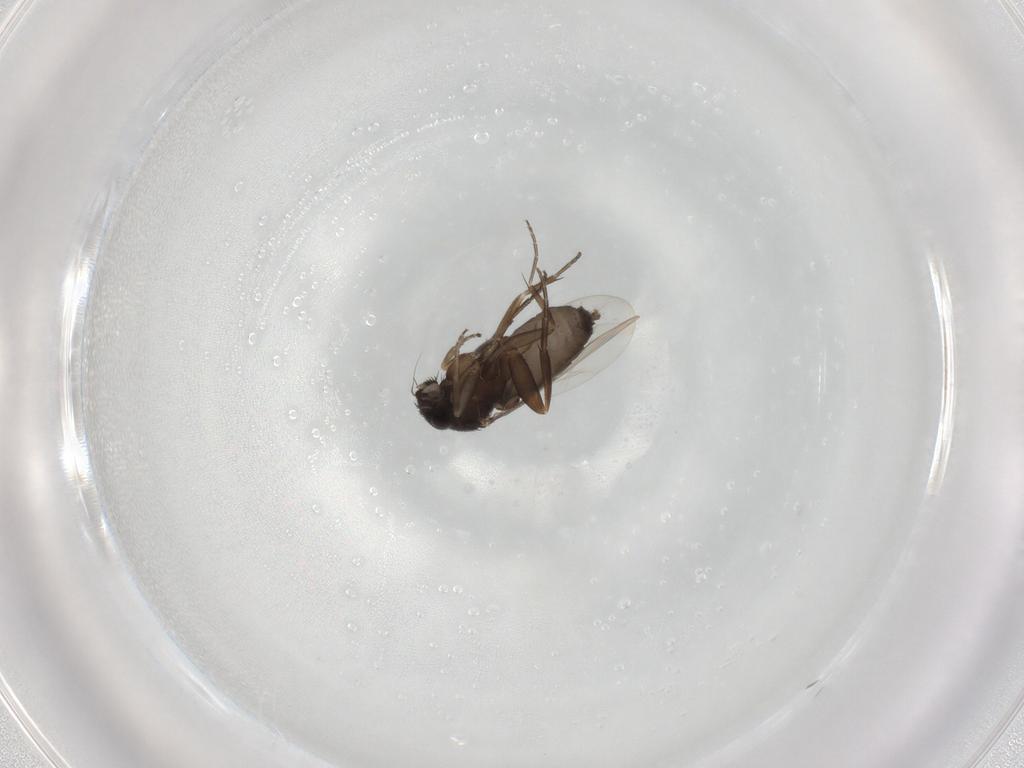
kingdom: Animalia
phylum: Arthropoda
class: Insecta
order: Diptera
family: Phoridae
